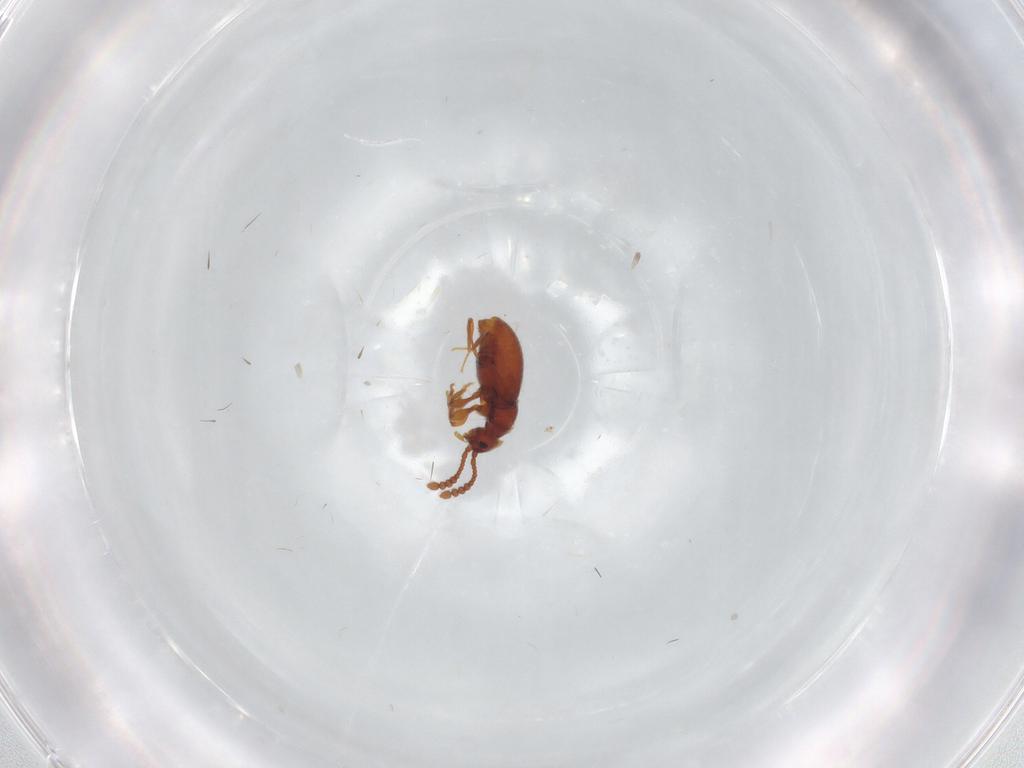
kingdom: Animalia
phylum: Arthropoda
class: Insecta
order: Coleoptera
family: Staphylinidae
